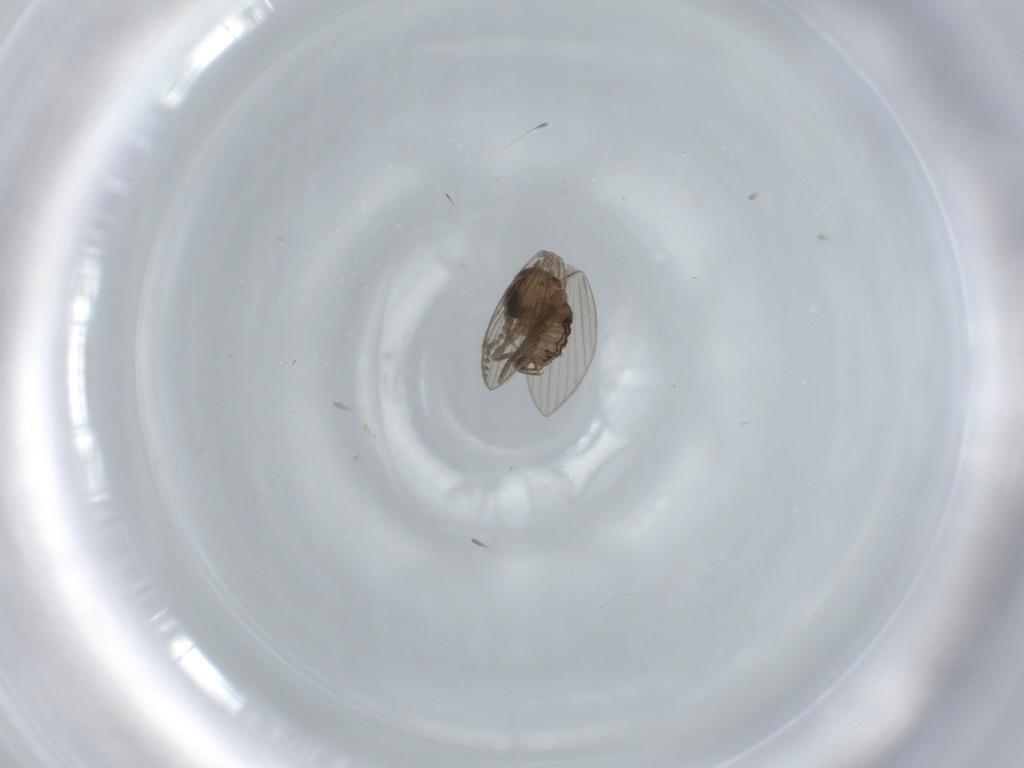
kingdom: Animalia
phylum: Arthropoda
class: Insecta
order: Diptera
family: Psychodidae
